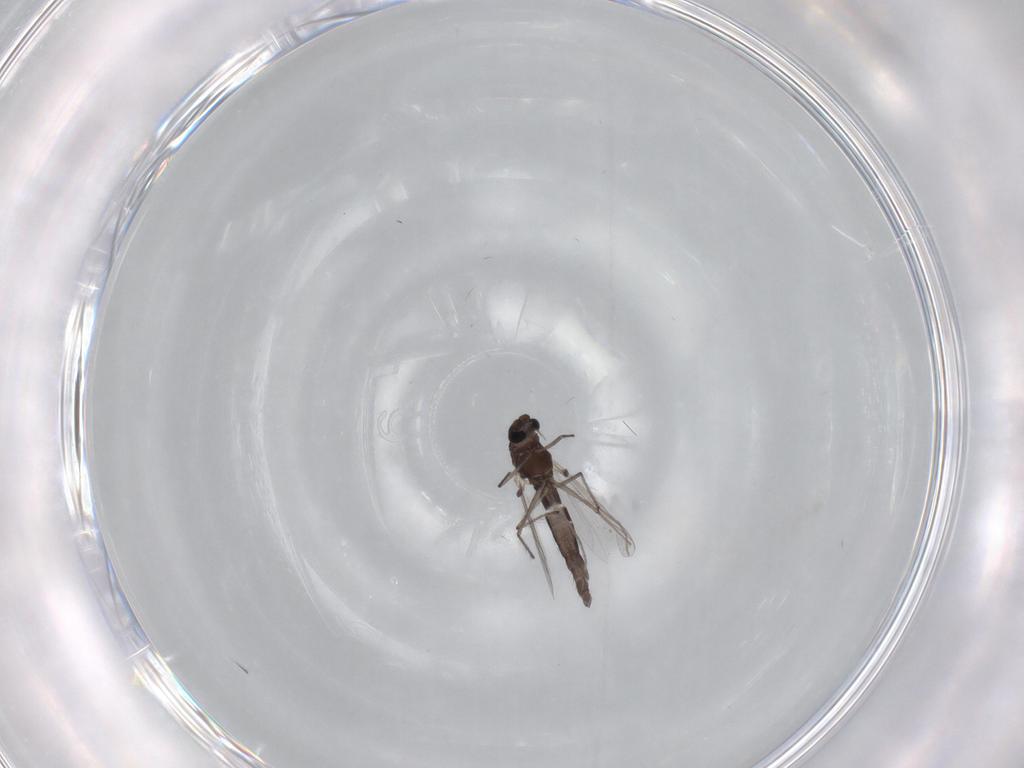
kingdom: Animalia
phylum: Arthropoda
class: Insecta
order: Diptera
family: Chironomidae
